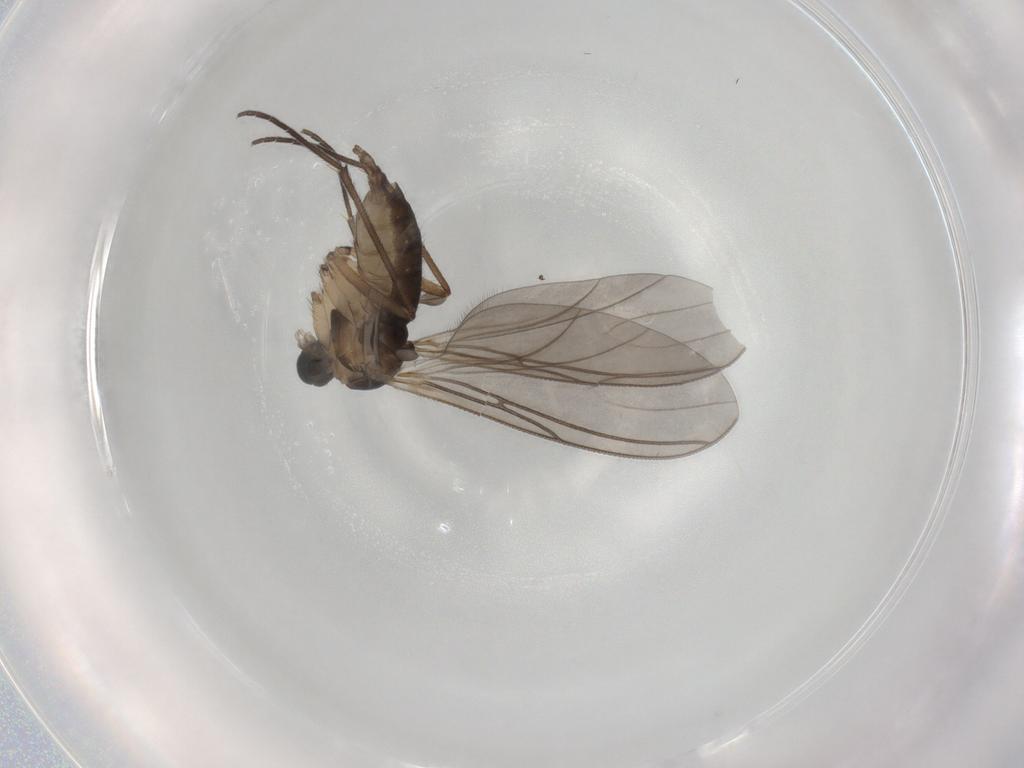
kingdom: Animalia
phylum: Arthropoda
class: Insecta
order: Diptera
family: Sciaridae
